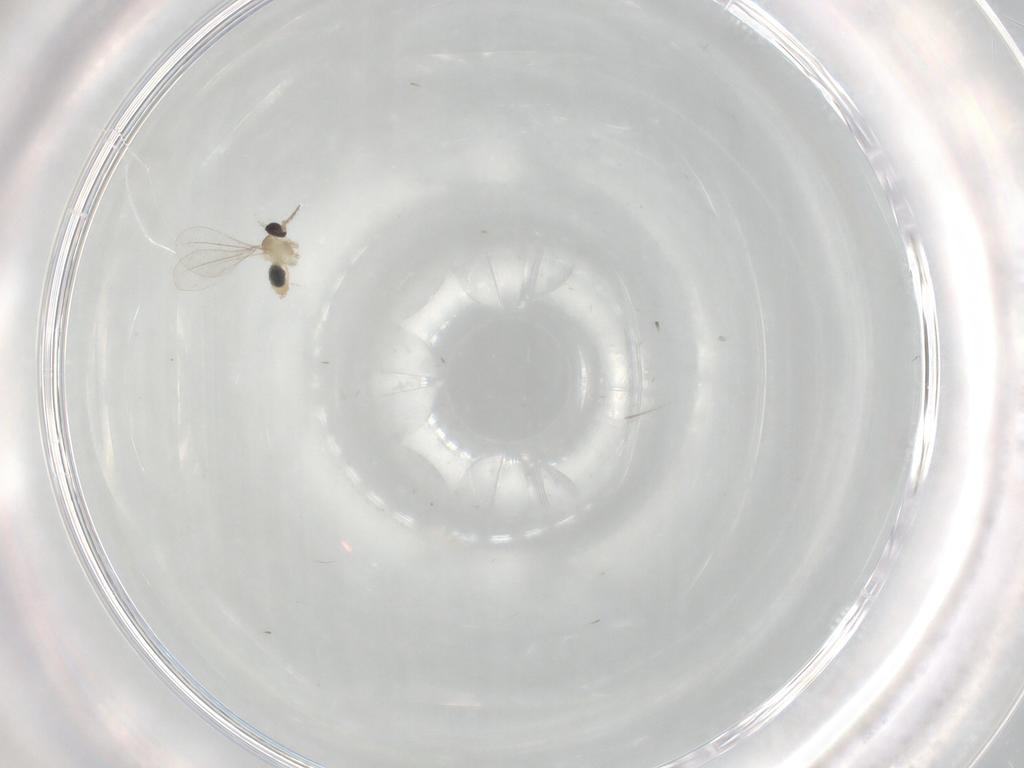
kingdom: Animalia
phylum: Arthropoda
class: Insecta
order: Diptera
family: Cecidomyiidae
